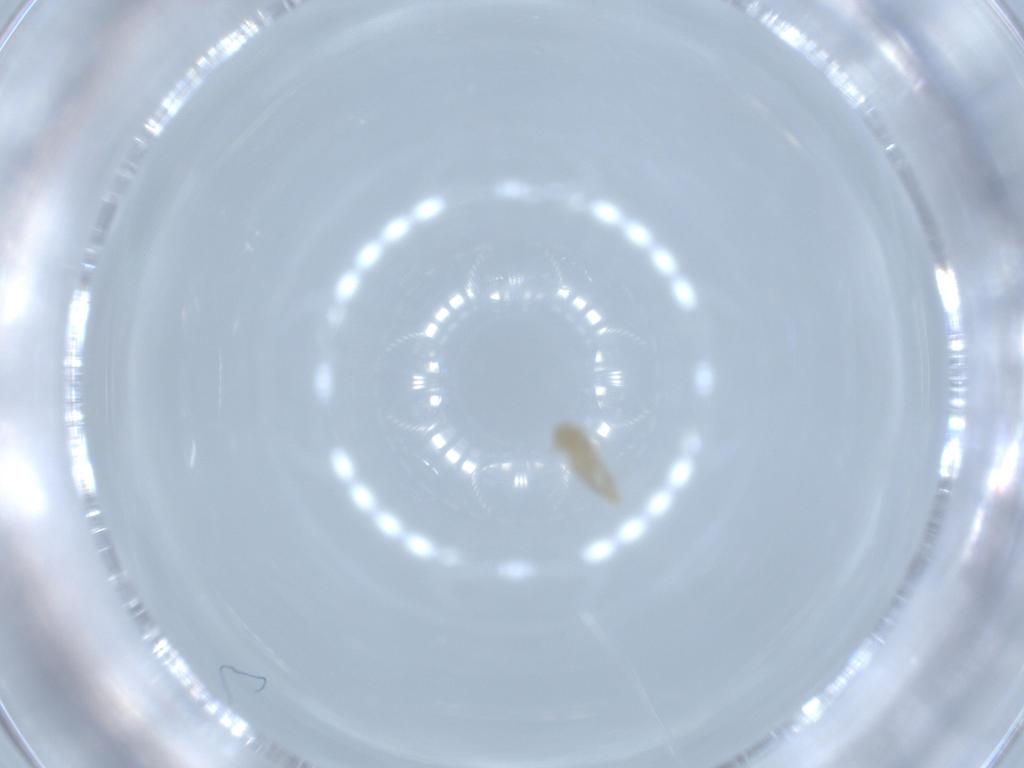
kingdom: Animalia
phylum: Arthropoda
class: Insecta
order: Diptera
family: Cecidomyiidae
